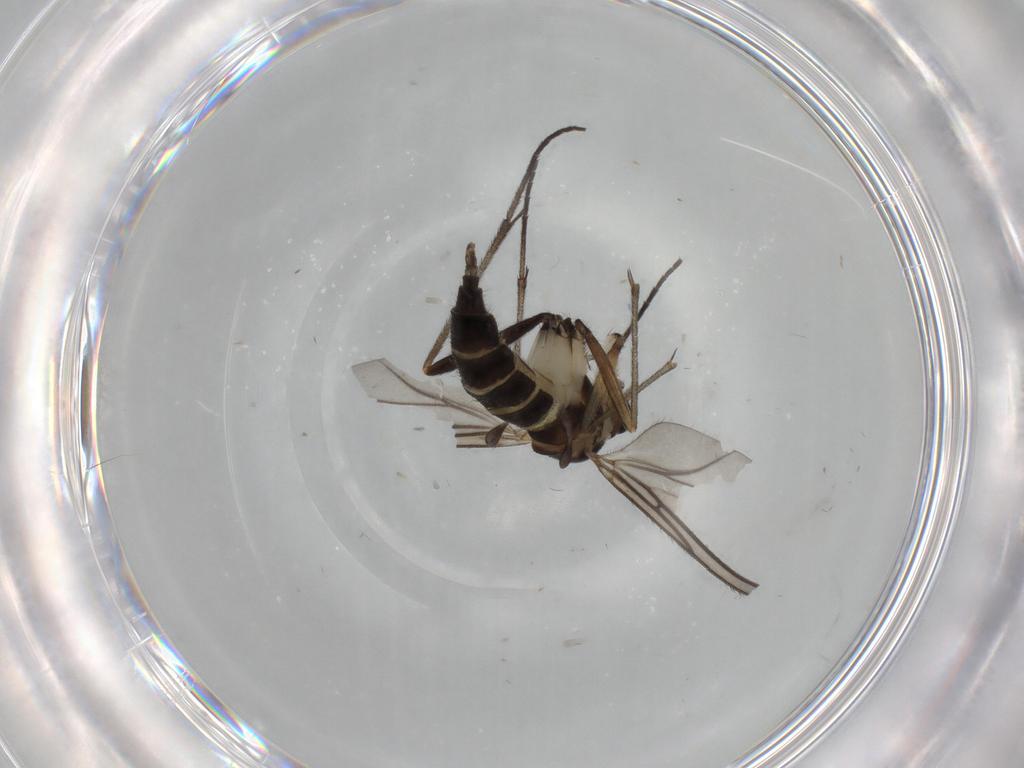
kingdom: Animalia
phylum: Arthropoda
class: Insecta
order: Diptera
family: Sciaridae
